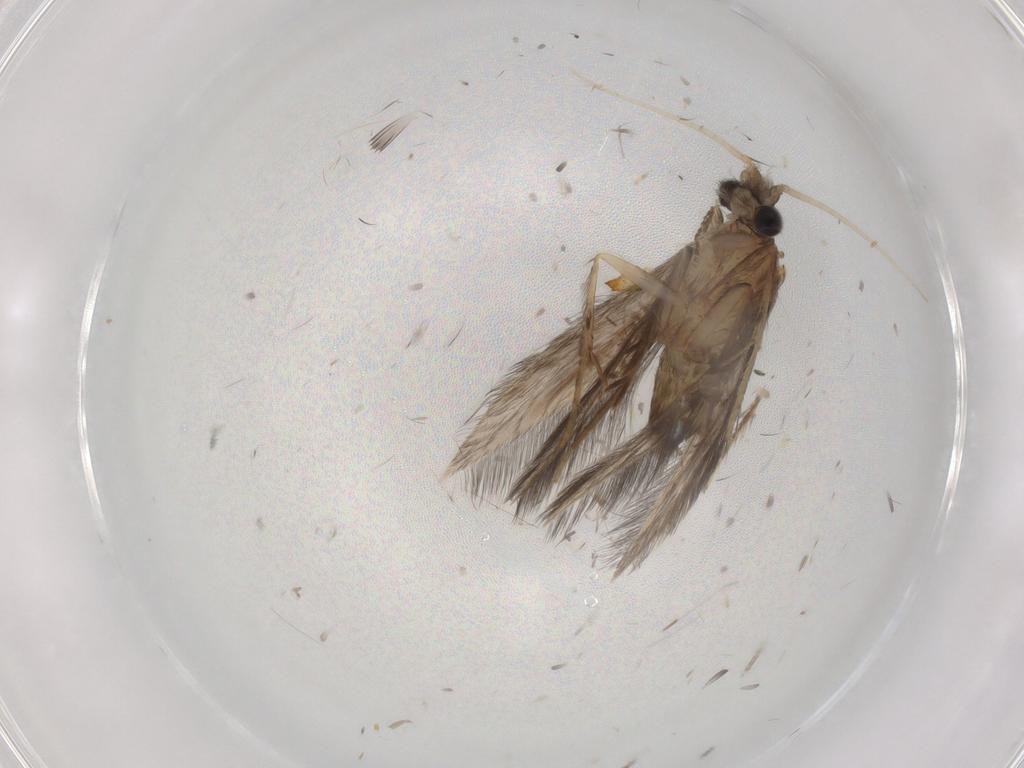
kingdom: Animalia
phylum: Arthropoda
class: Insecta
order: Trichoptera
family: Hydroptilidae
